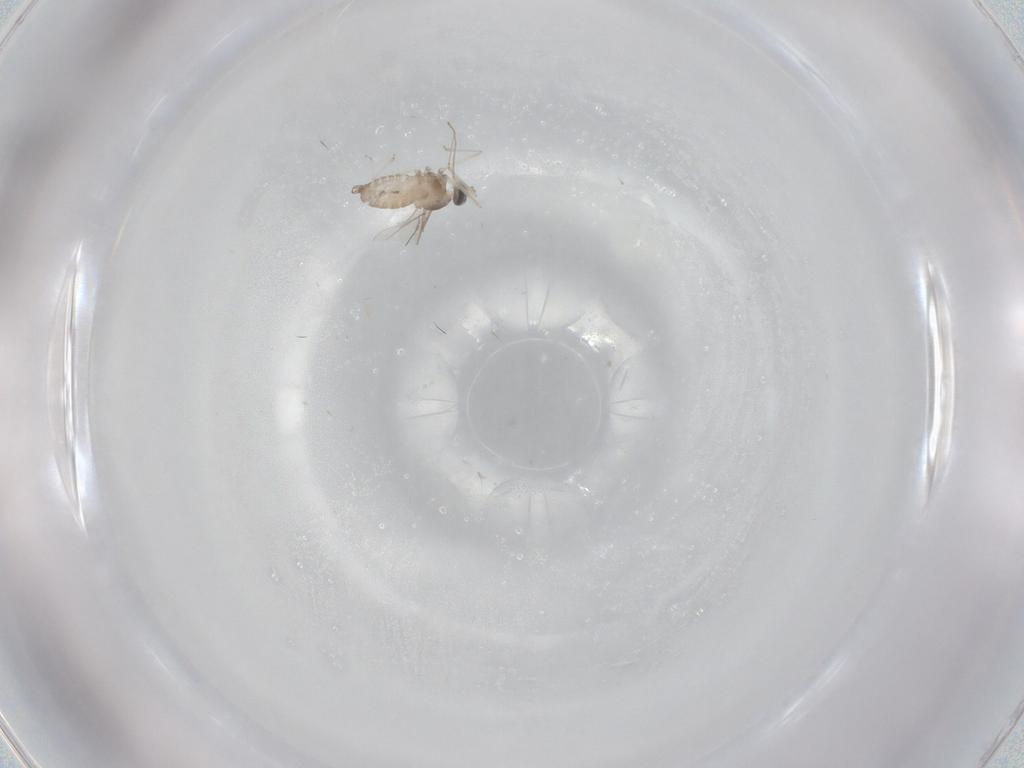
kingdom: Animalia
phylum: Arthropoda
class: Insecta
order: Diptera
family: Cecidomyiidae
